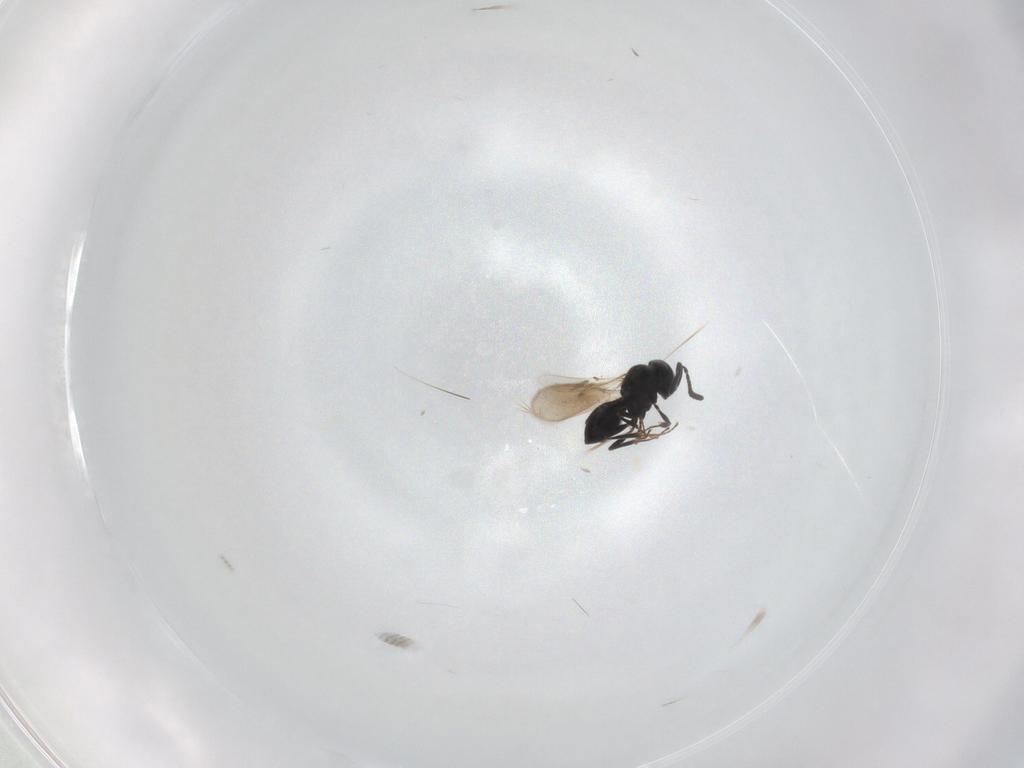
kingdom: Animalia
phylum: Arthropoda
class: Insecta
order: Hymenoptera
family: Scelionidae
